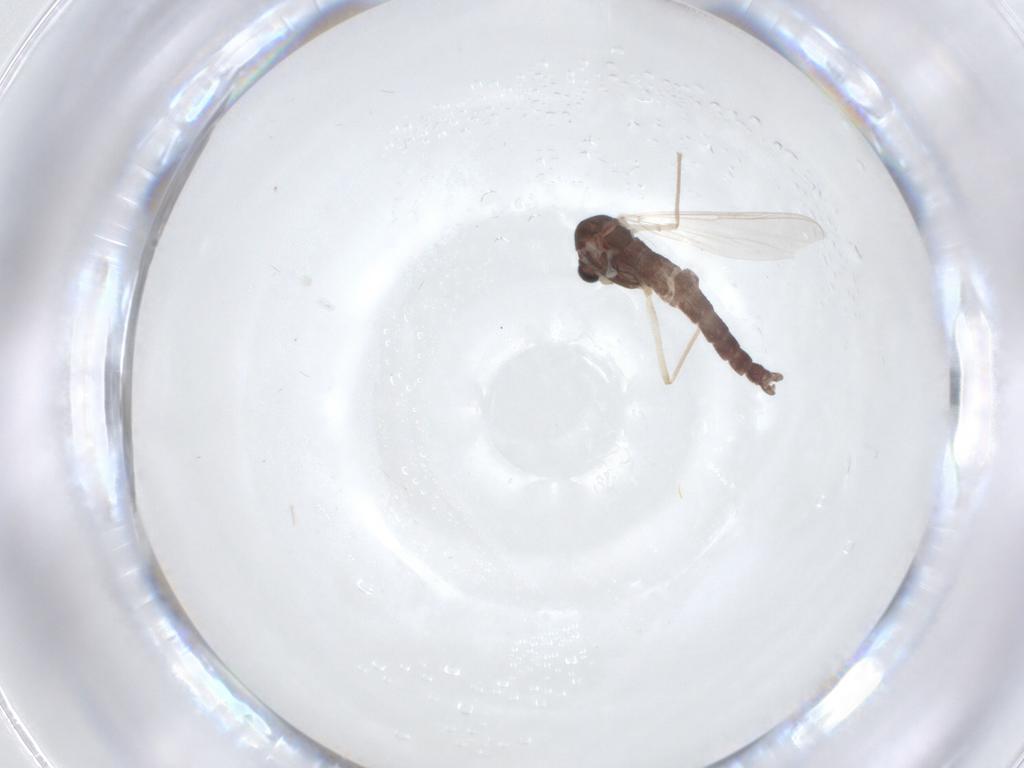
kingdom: Animalia
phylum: Arthropoda
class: Insecta
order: Diptera
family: Chironomidae
